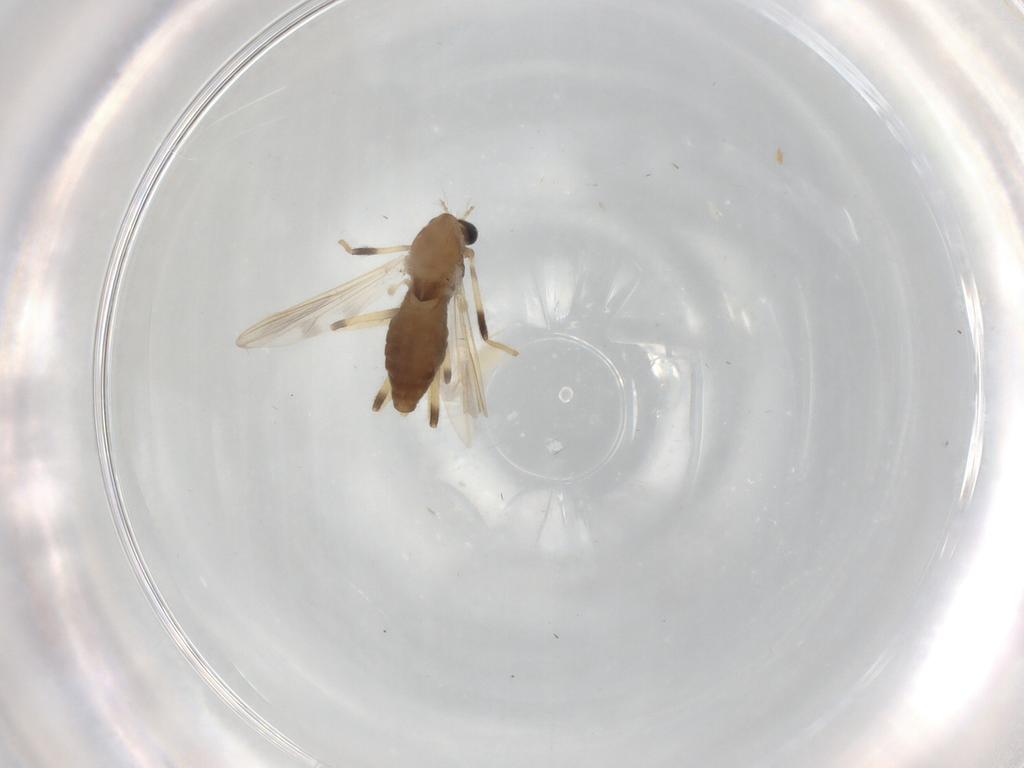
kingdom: Animalia
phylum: Arthropoda
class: Insecta
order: Diptera
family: Chironomidae
